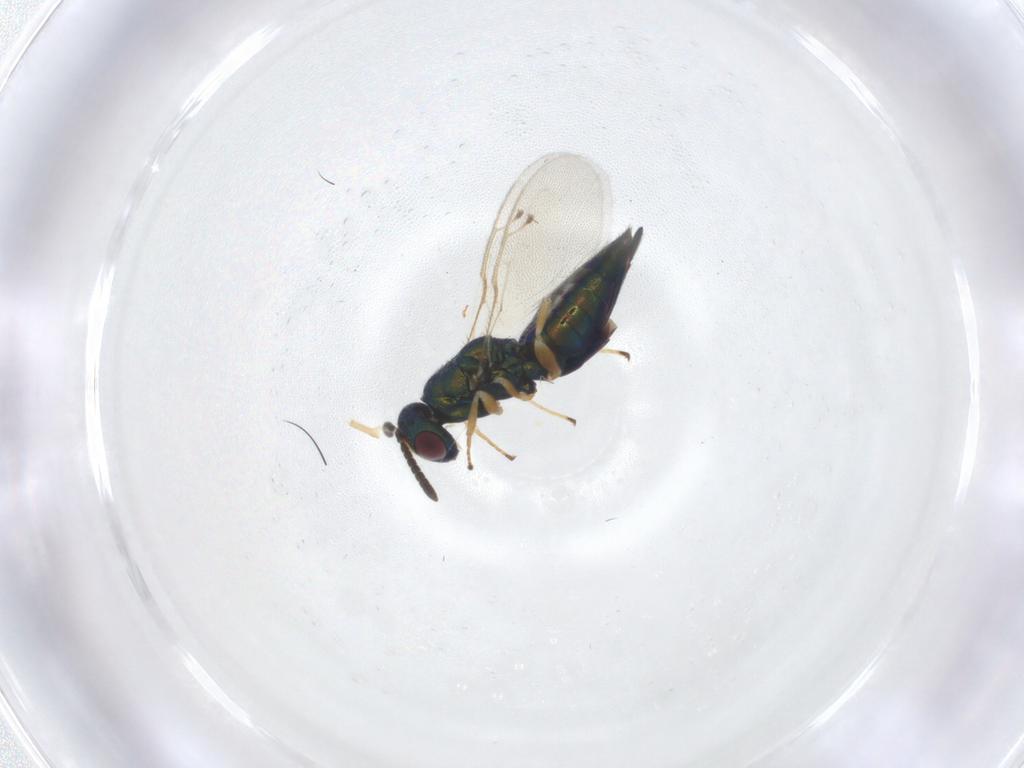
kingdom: Animalia
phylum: Arthropoda
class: Insecta
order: Hymenoptera
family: Pteromalidae
